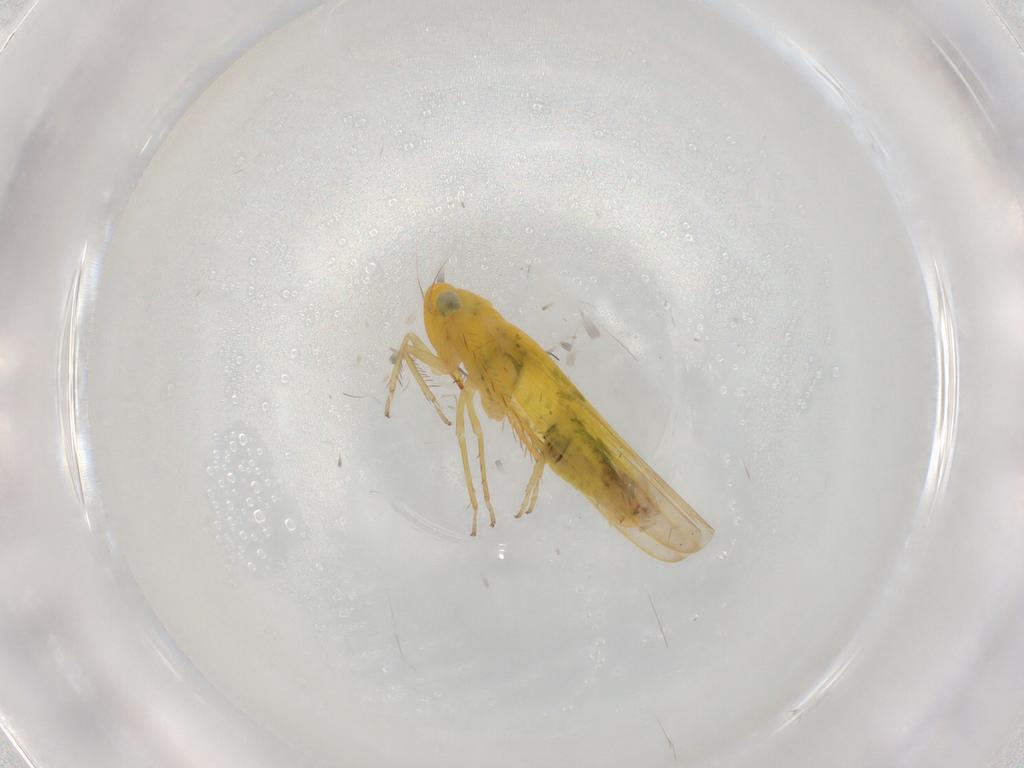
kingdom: Animalia
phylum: Arthropoda
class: Insecta
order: Hemiptera
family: Cicadellidae
